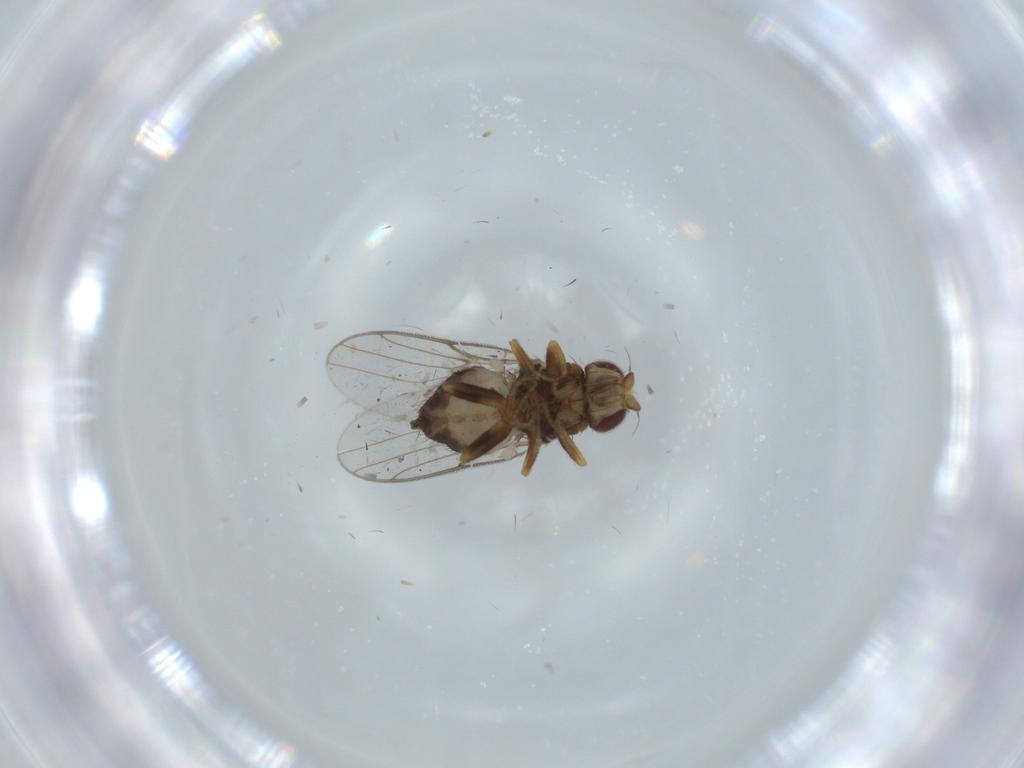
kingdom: Animalia
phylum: Arthropoda
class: Insecta
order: Diptera
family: Chloropidae
